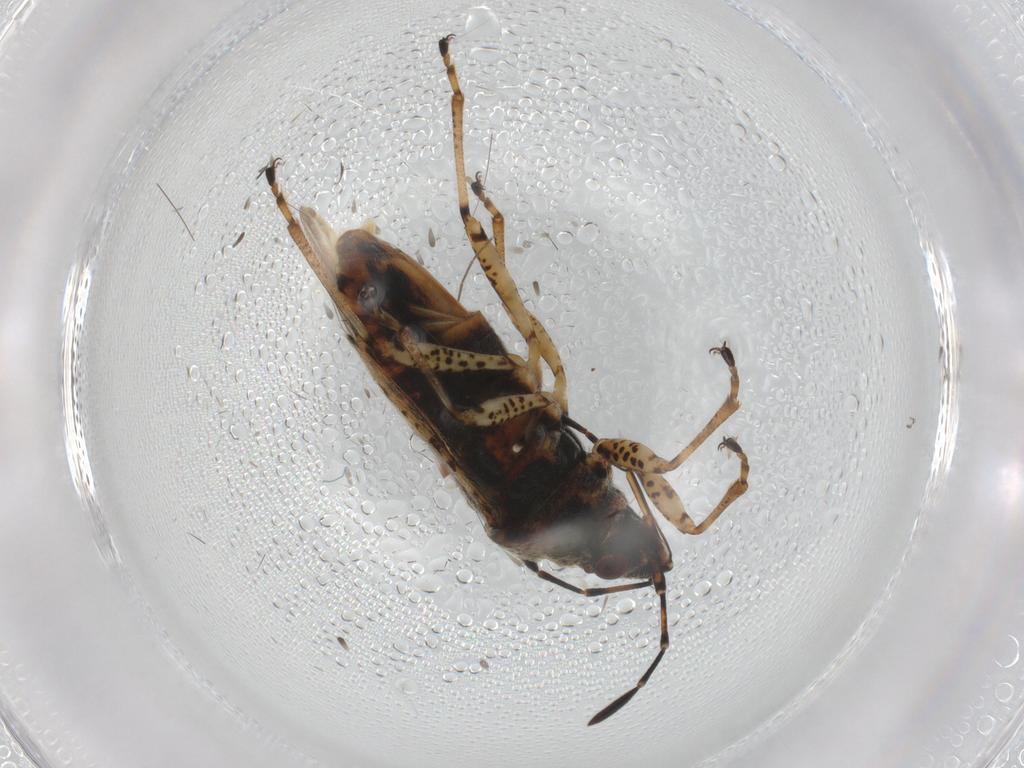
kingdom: Animalia
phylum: Arthropoda
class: Insecta
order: Hemiptera
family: Lygaeidae
